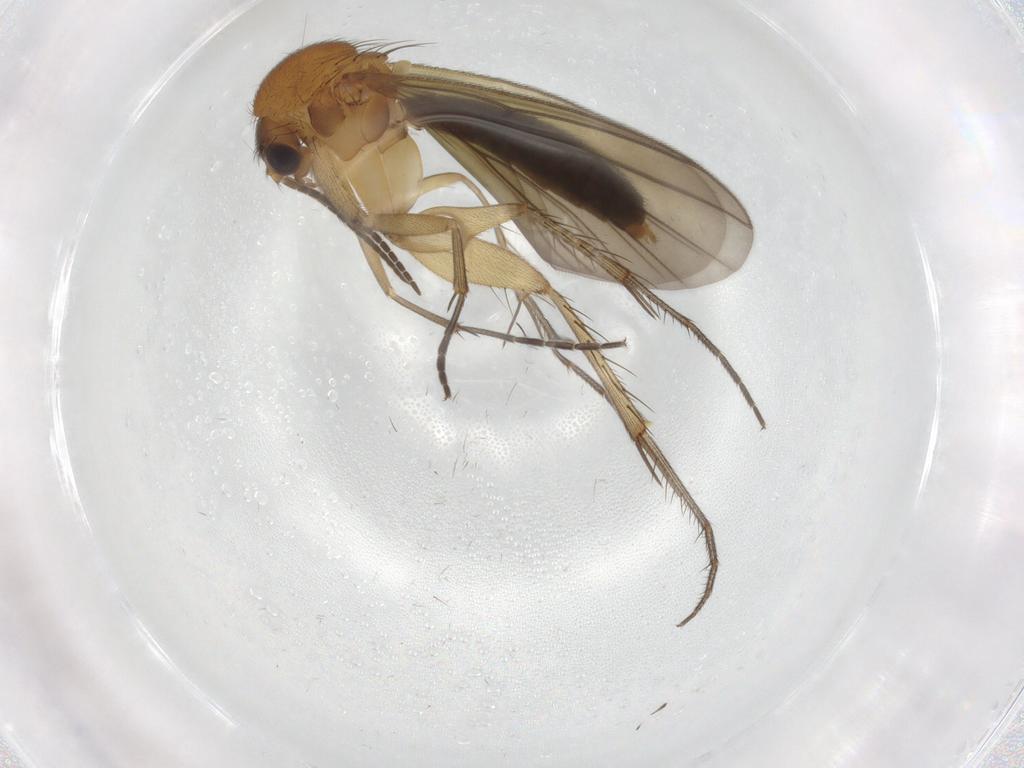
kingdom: Animalia
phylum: Arthropoda
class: Insecta
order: Diptera
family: Mycetophilidae
